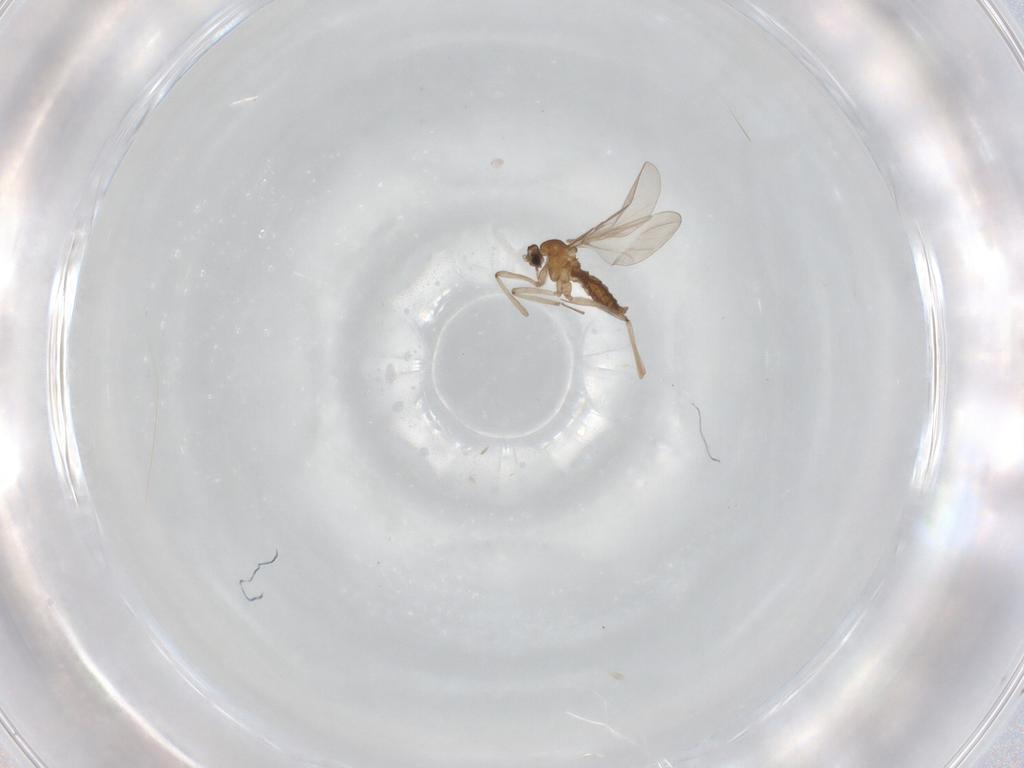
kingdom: Animalia
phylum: Arthropoda
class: Insecta
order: Diptera
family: Cecidomyiidae
